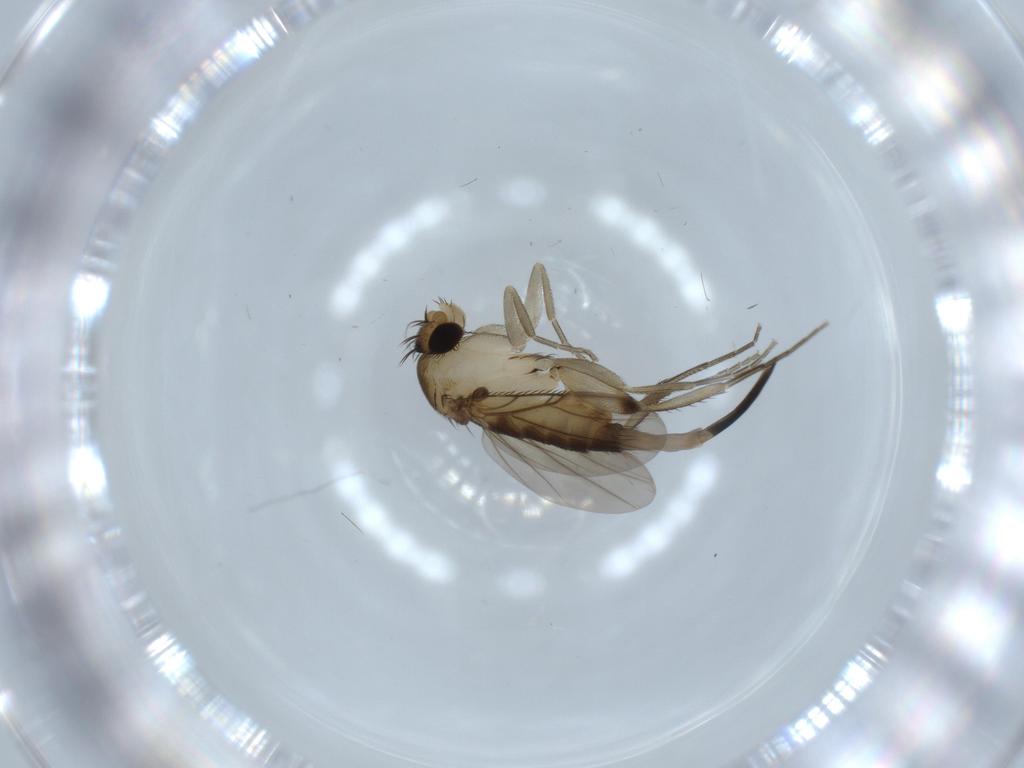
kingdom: Animalia
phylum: Arthropoda
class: Insecta
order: Diptera
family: Phoridae
